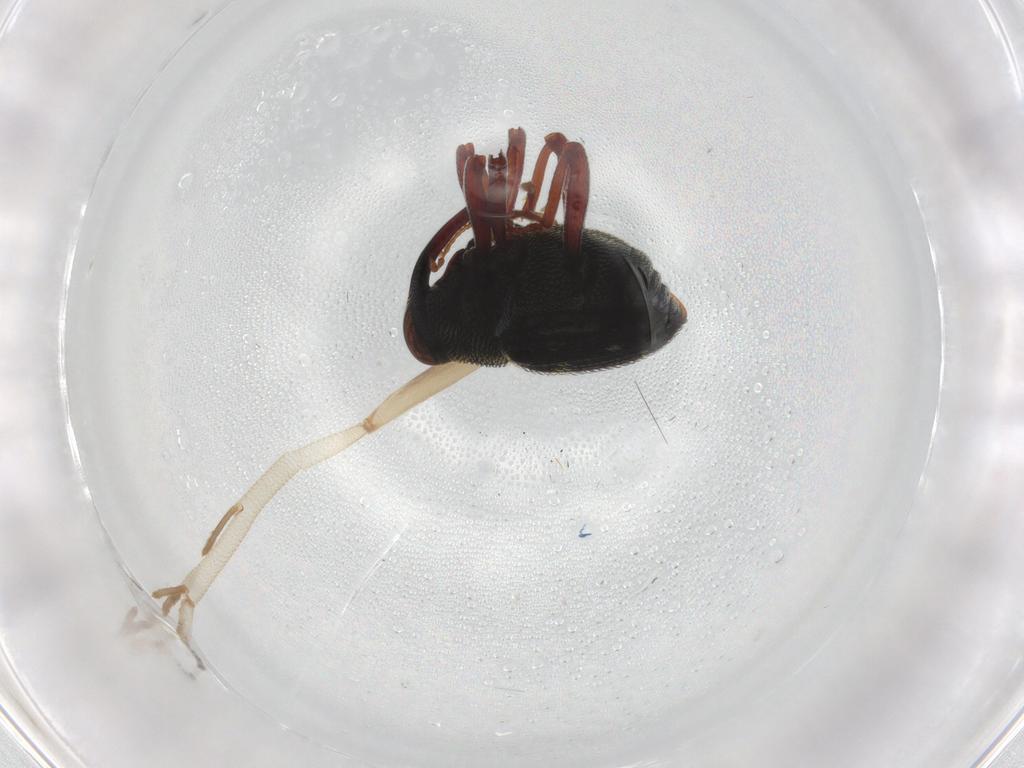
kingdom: Animalia
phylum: Arthropoda
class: Insecta
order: Coleoptera
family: Curculionidae
